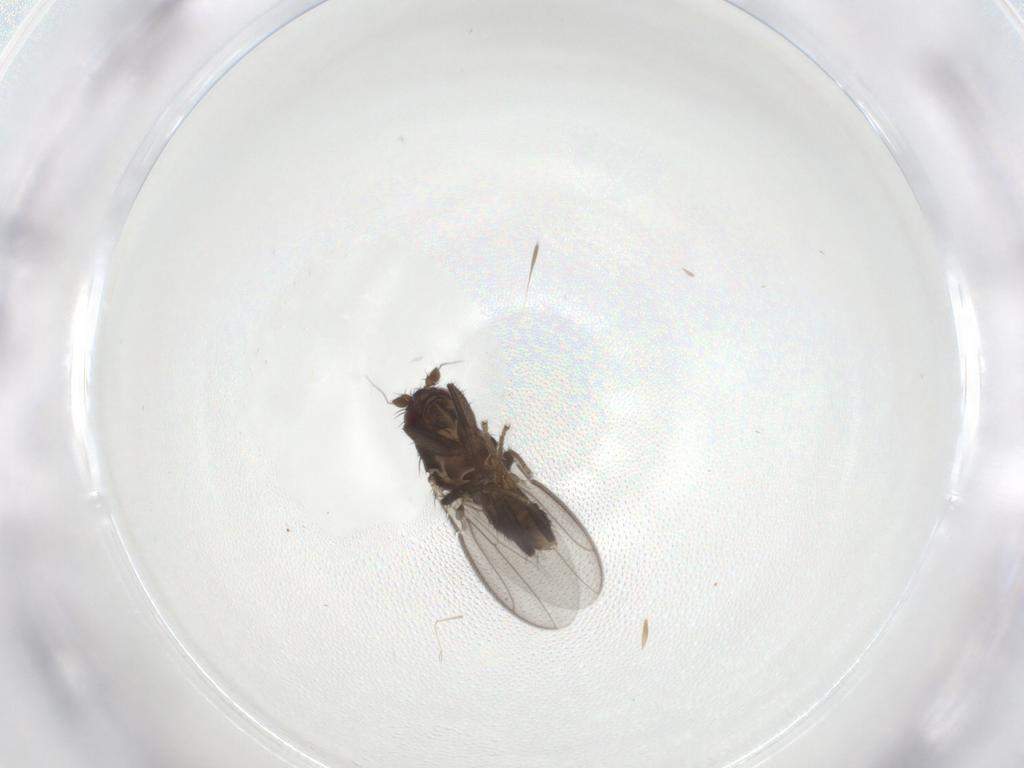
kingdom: Animalia
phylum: Arthropoda
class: Insecta
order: Diptera
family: Sphaeroceridae
